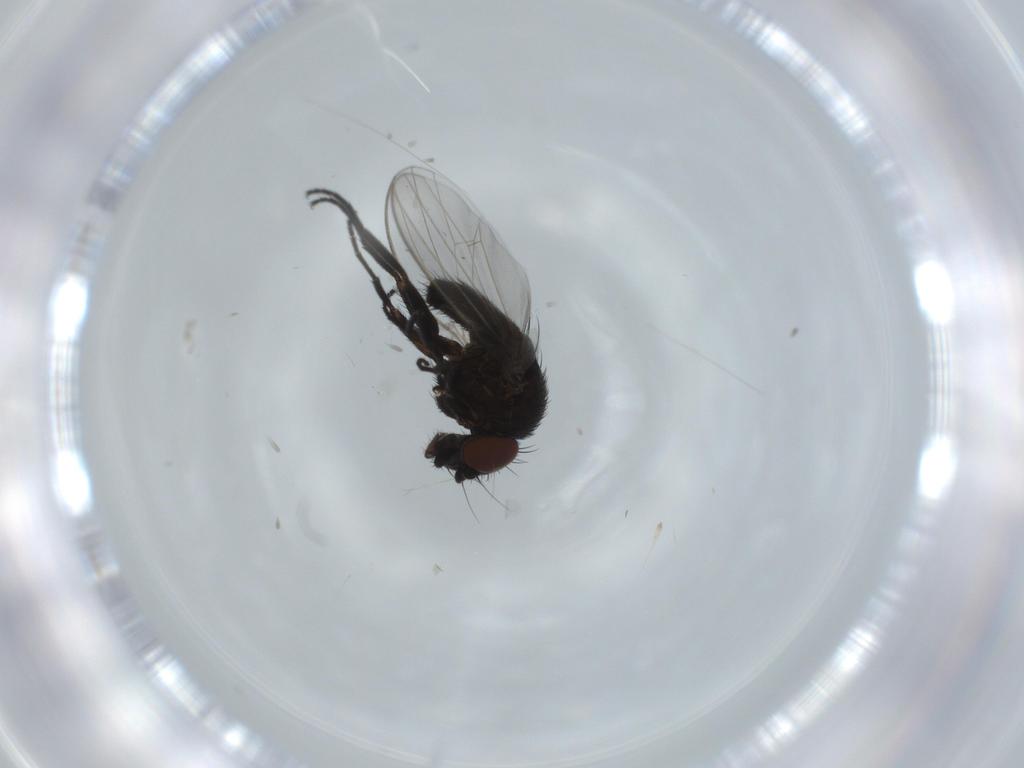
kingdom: Animalia
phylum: Arthropoda
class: Insecta
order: Diptera
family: Milichiidae
